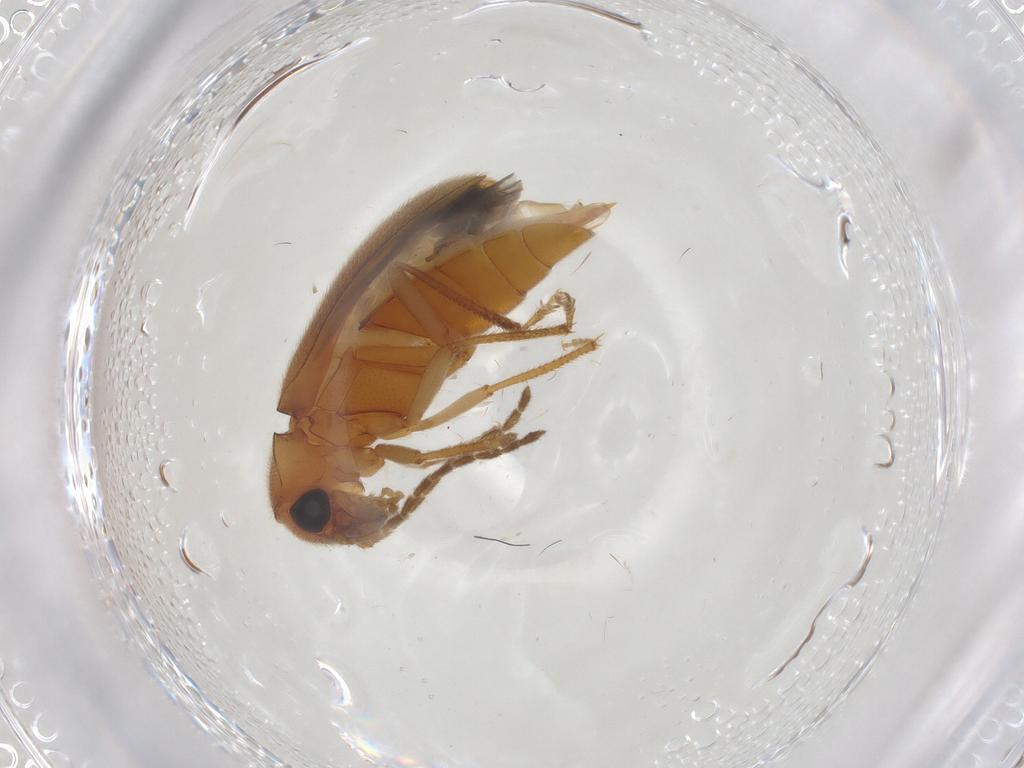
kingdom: Animalia
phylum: Arthropoda
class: Insecta
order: Coleoptera
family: Ptilodactylidae
